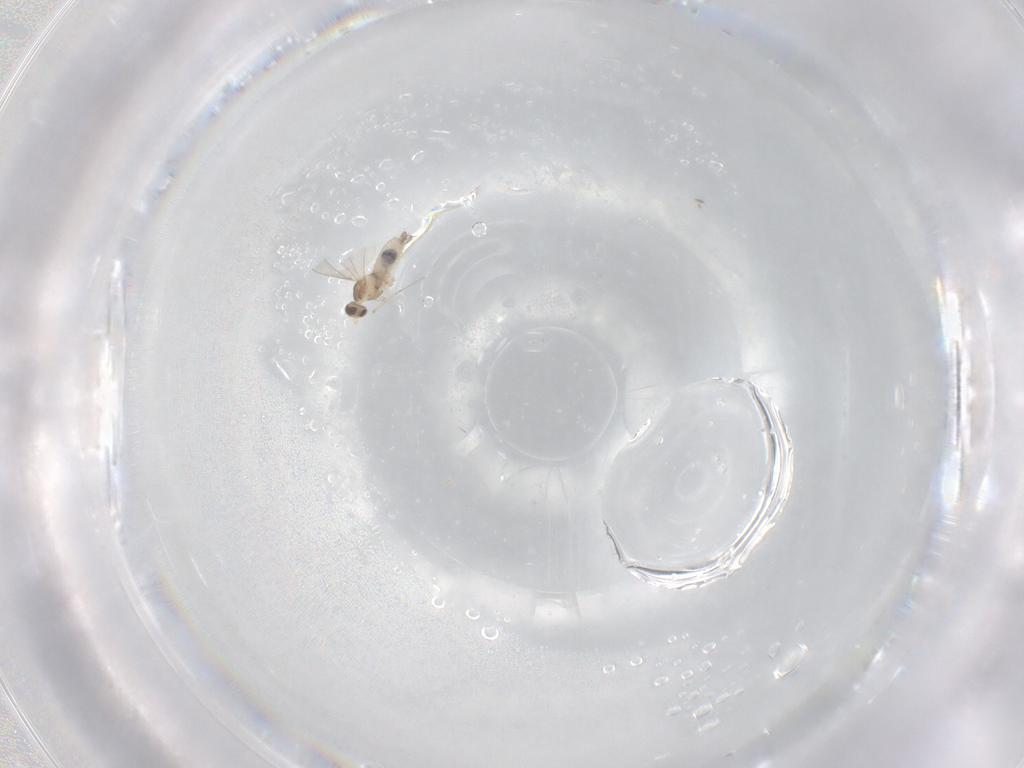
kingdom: Animalia
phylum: Arthropoda
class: Insecta
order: Diptera
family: Cecidomyiidae
